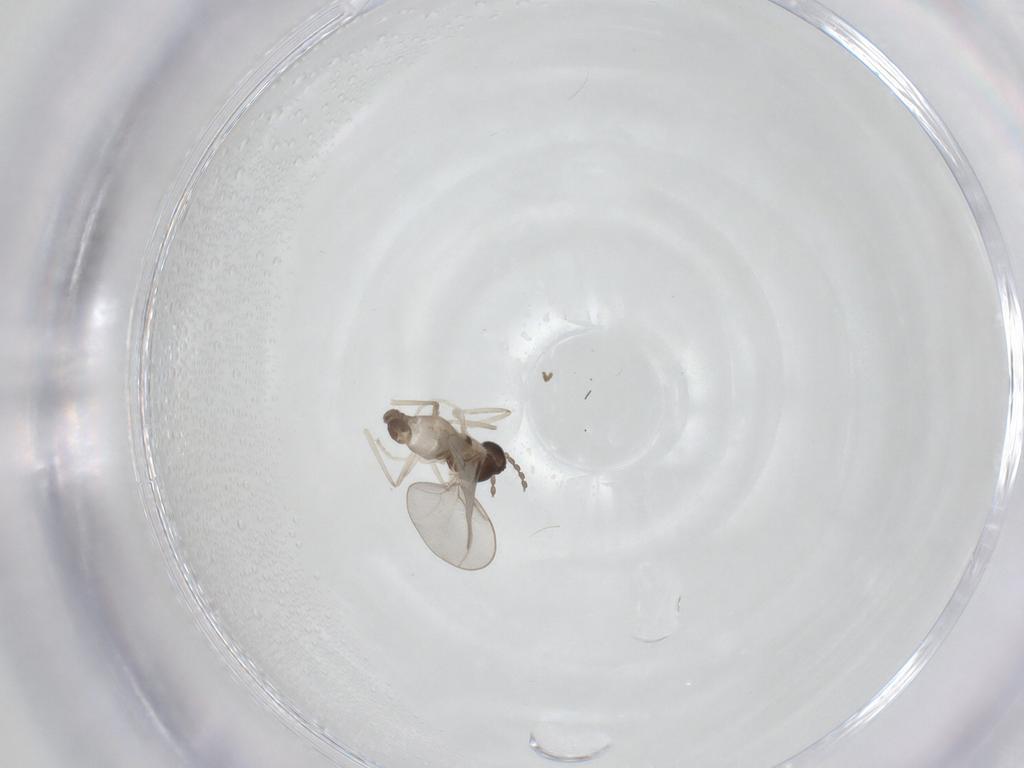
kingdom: Animalia
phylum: Arthropoda
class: Insecta
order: Diptera
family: Cecidomyiidae
